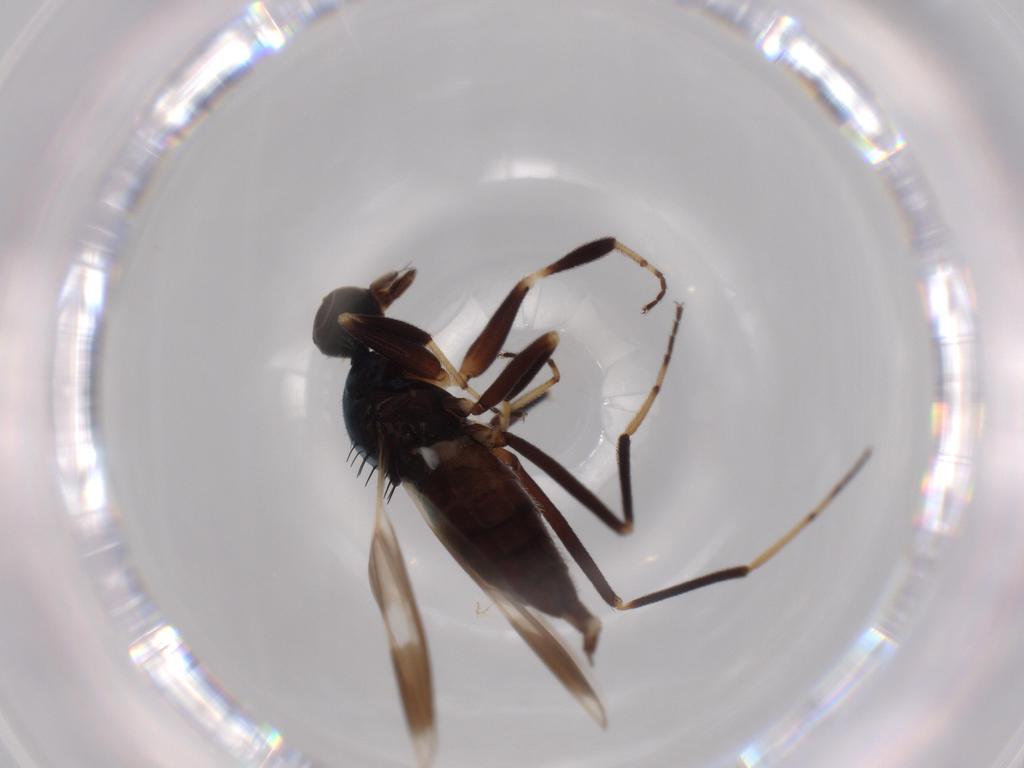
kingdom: Animalia
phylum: Arthropoda
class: Insecta
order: Diptera
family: Hybotidae
